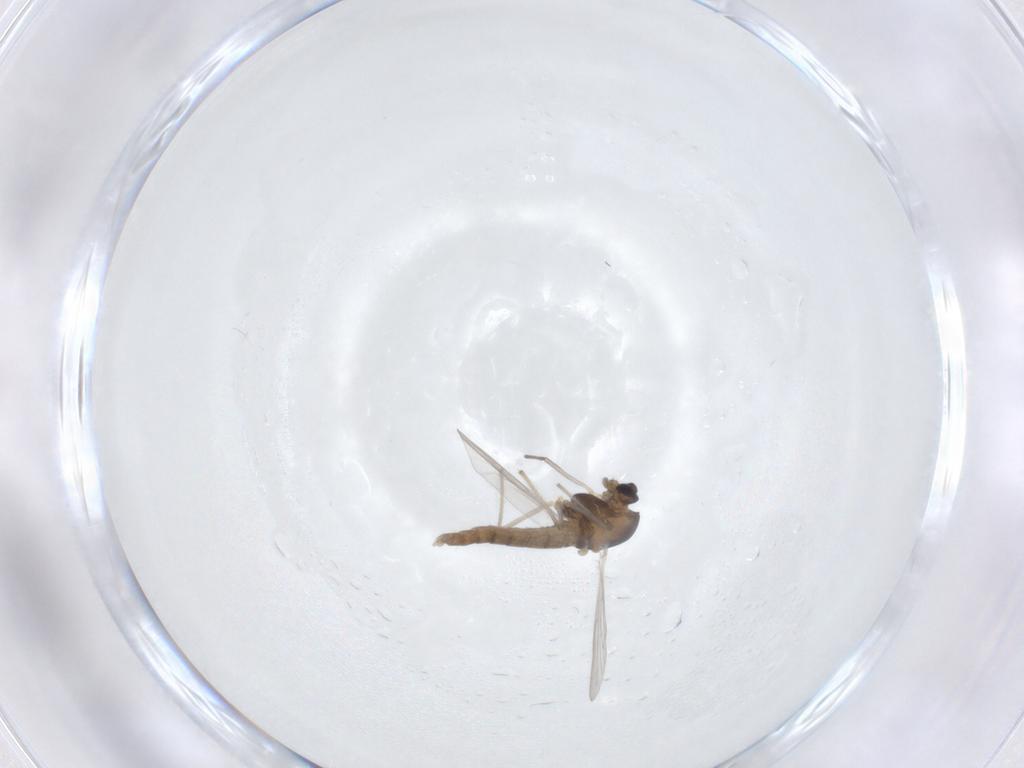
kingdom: Animalia
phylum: Arthropoda
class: Insecta
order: Diptera
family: Chironomidae
